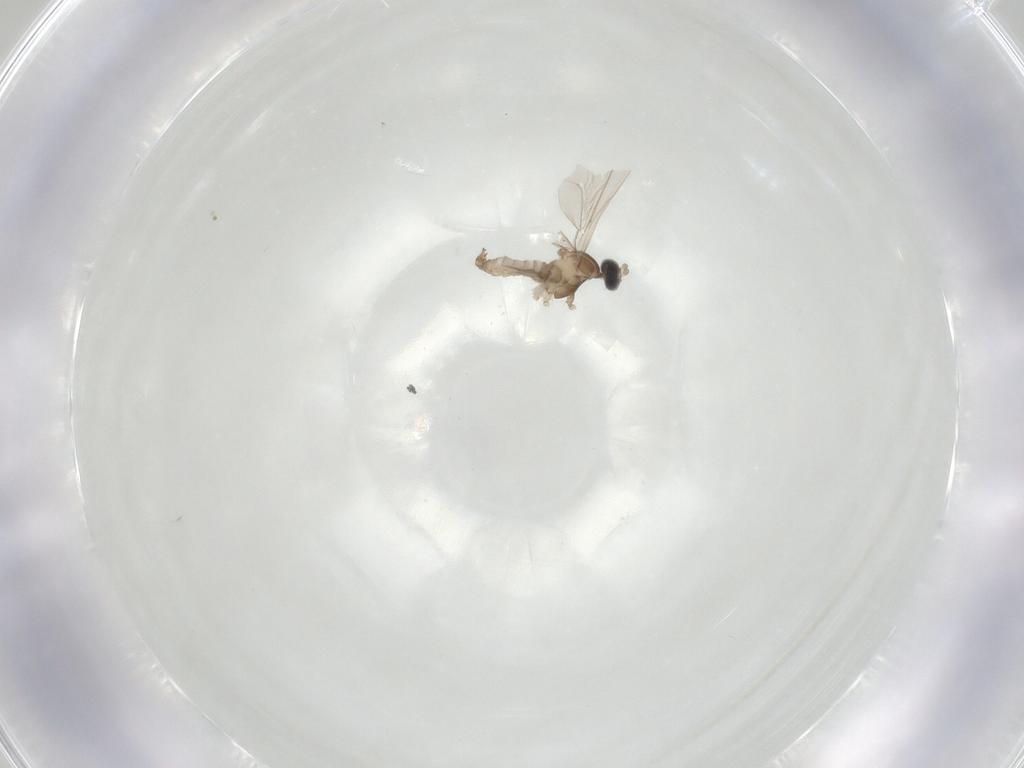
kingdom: Animalia
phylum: Arthropoda
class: Insecta
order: Diptera
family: Cecidomyiidae
